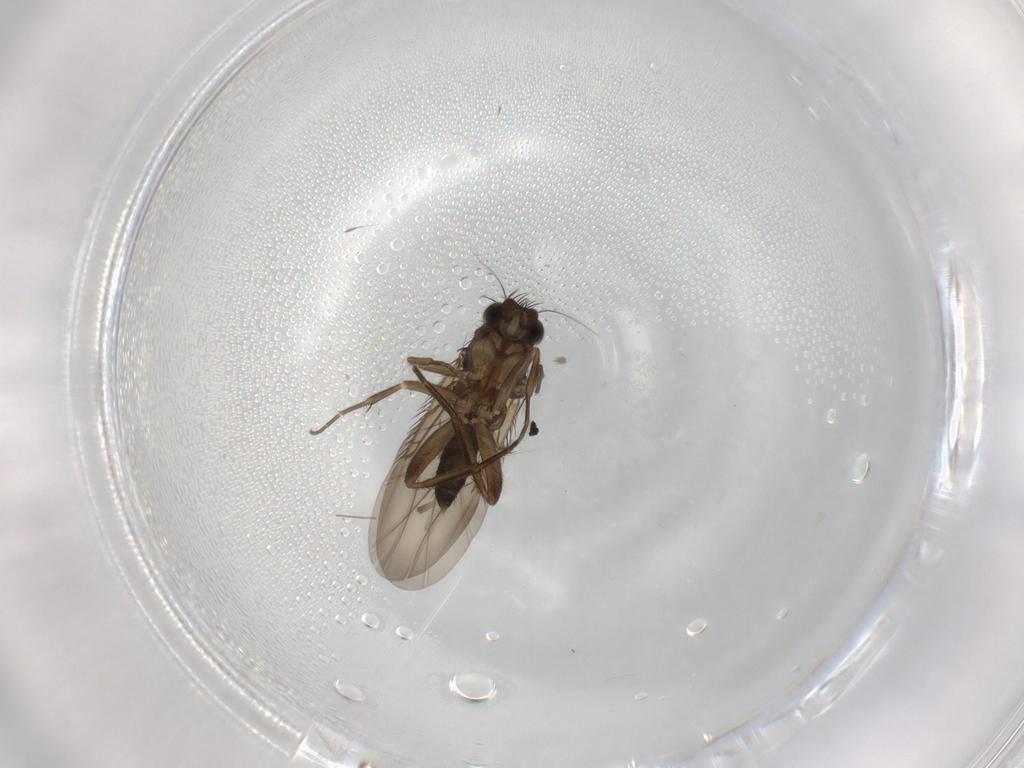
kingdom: Animalia
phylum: Arthropoda
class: Insecta
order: Diptera
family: Phoridae
